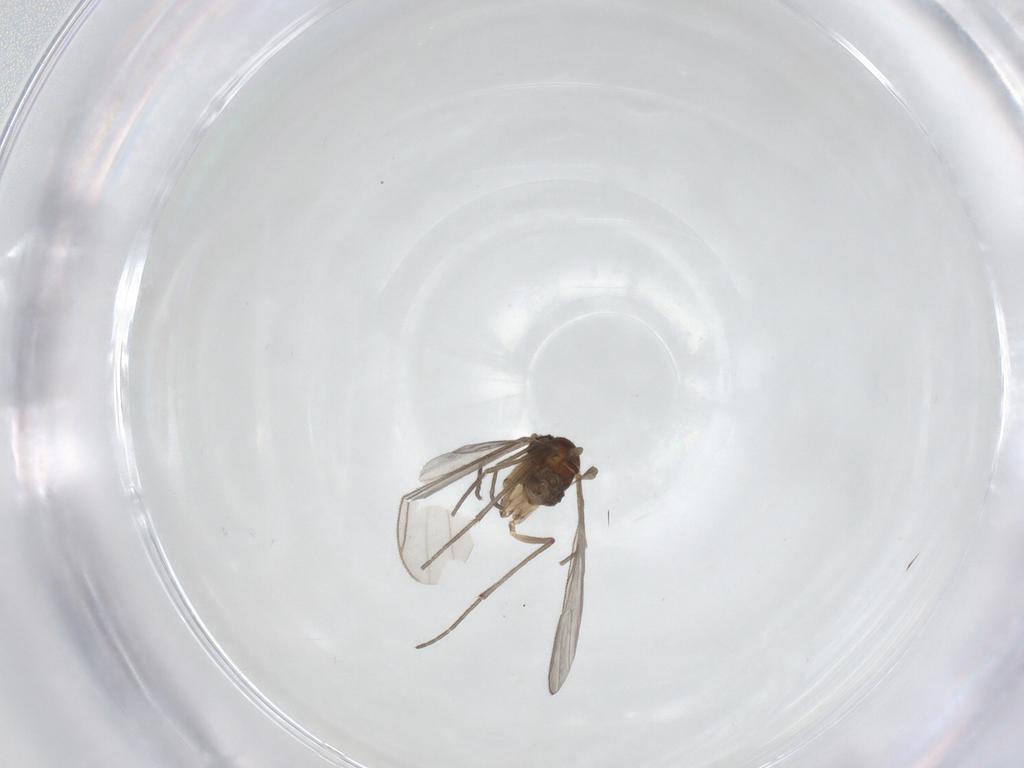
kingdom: Animalia
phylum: Arthropoda
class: Insecta
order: Diptera
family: Sciaridae
